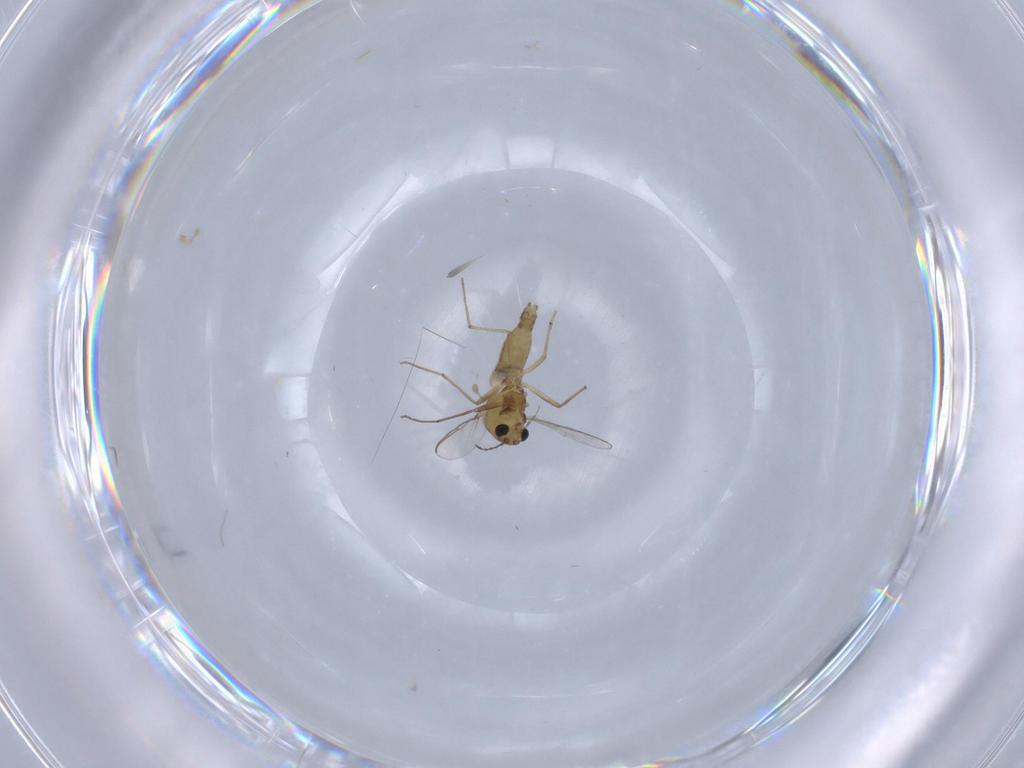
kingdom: Animalia
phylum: Arthropoda
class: Insecta
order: Diptera
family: Chironomidae
